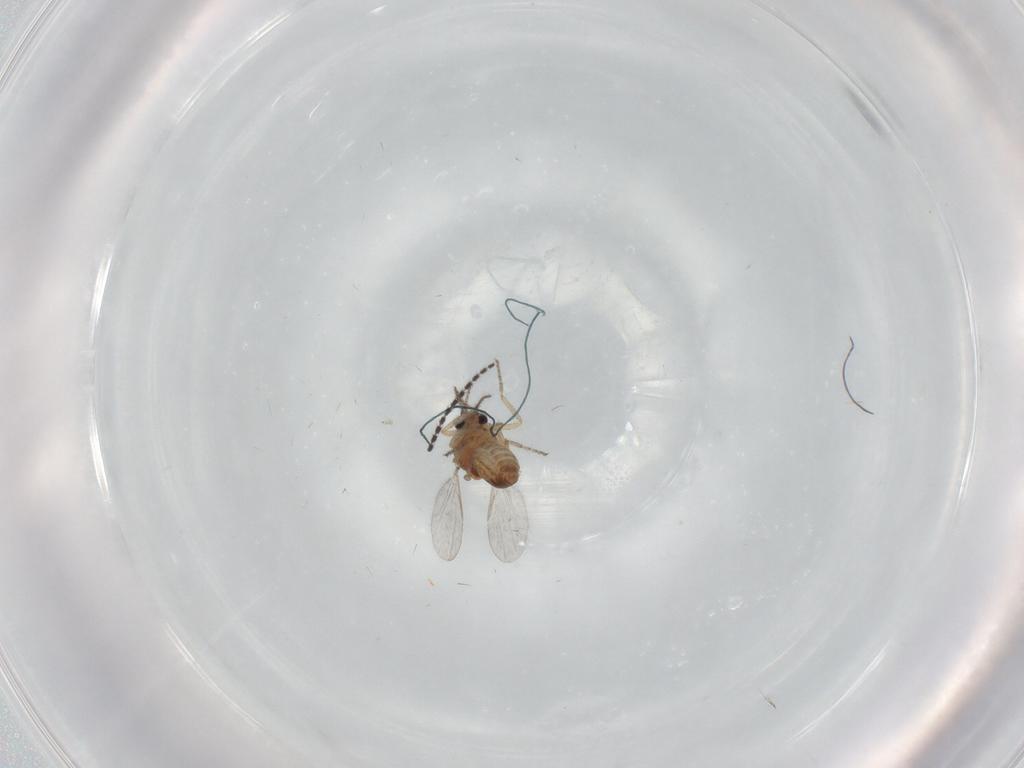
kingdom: Animalia
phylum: Arthropoda
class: Insecta
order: Diptera
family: Ceratopogonidae
